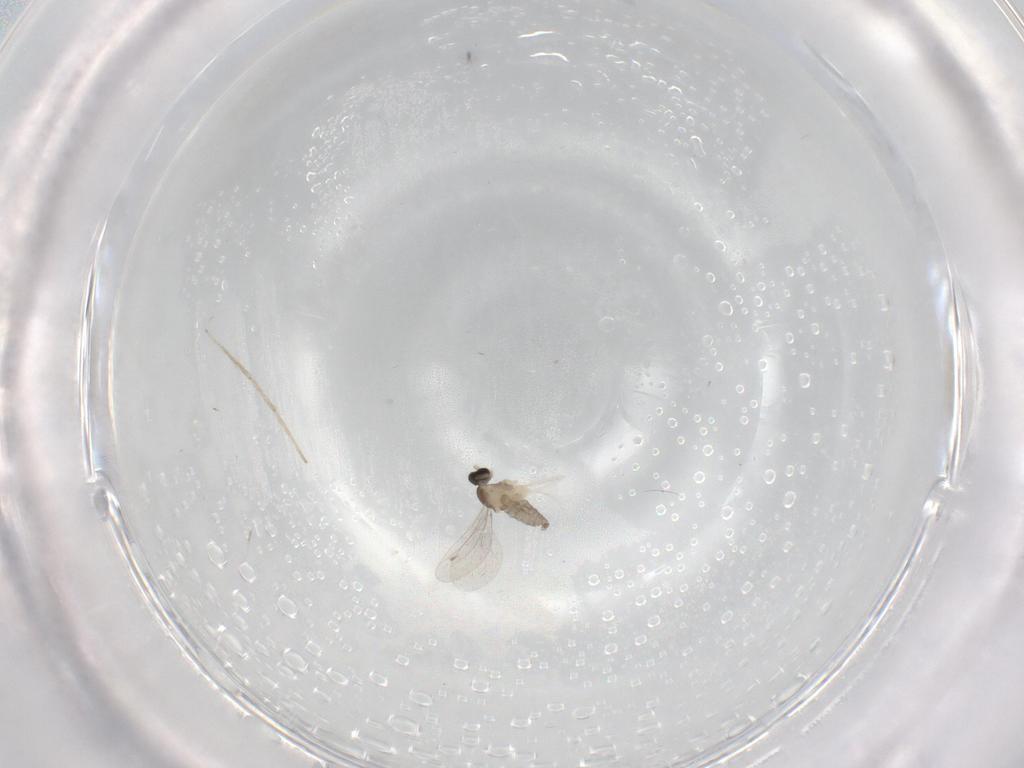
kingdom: Animalia
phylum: Arthropoda
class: Insecta
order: Diptera
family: Cecidomyiidae
